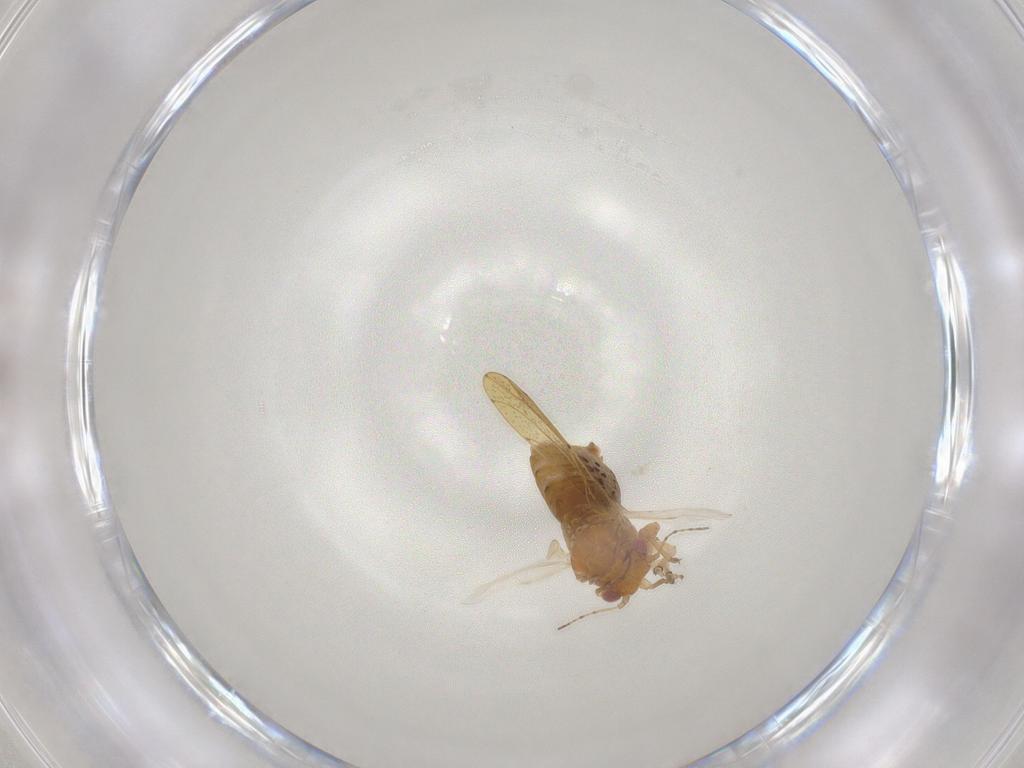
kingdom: Animalia
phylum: Arthropoda
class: Insecta
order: Hemiptera
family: Psylloidea_incertae_sedis
